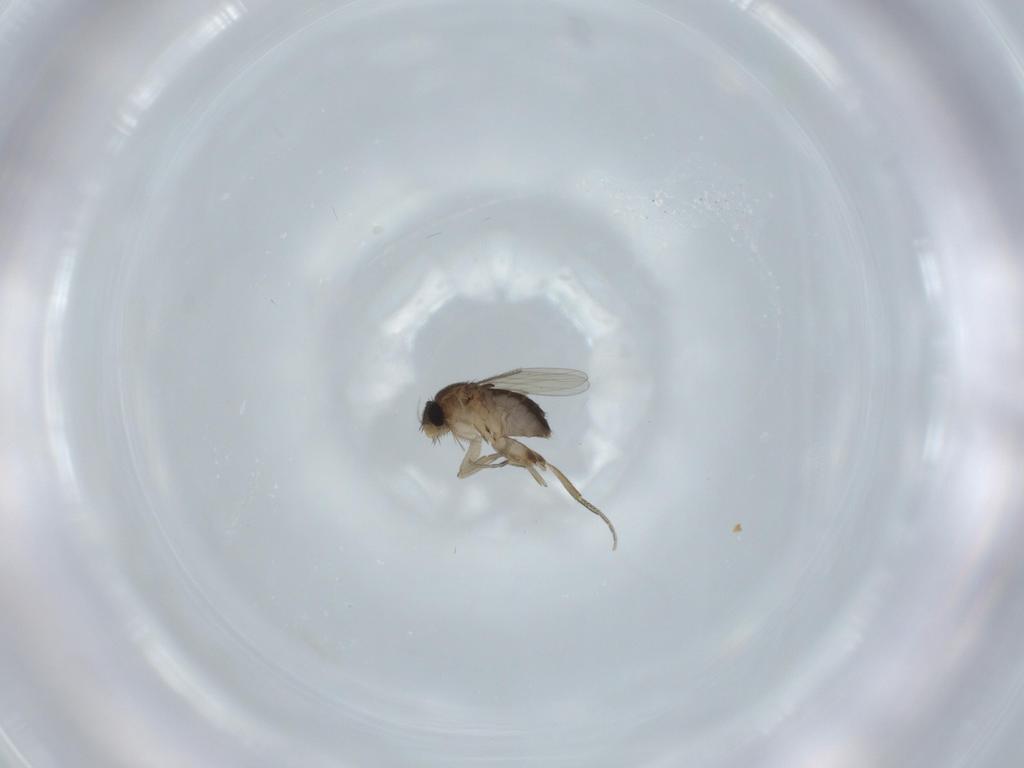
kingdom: Animalia
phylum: Arthropoda
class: Insecta
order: Diptera
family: Phoridae
